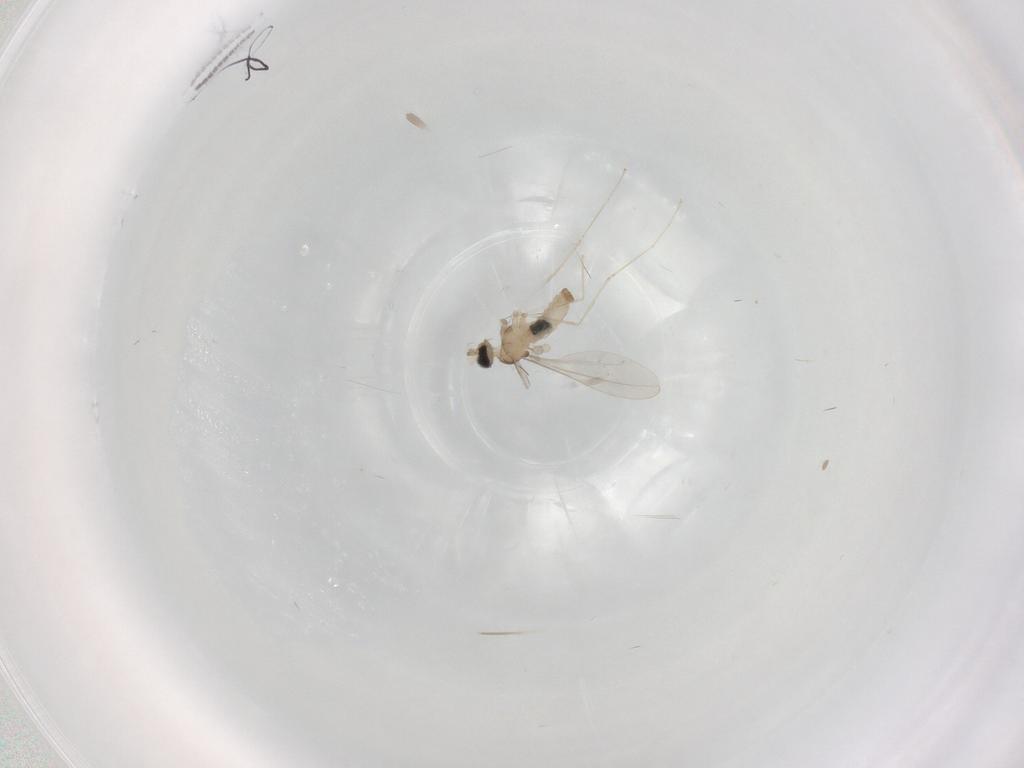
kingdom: Animalia
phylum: Arthropoda
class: Insecta
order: Diptera
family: Cecidomyiidae
